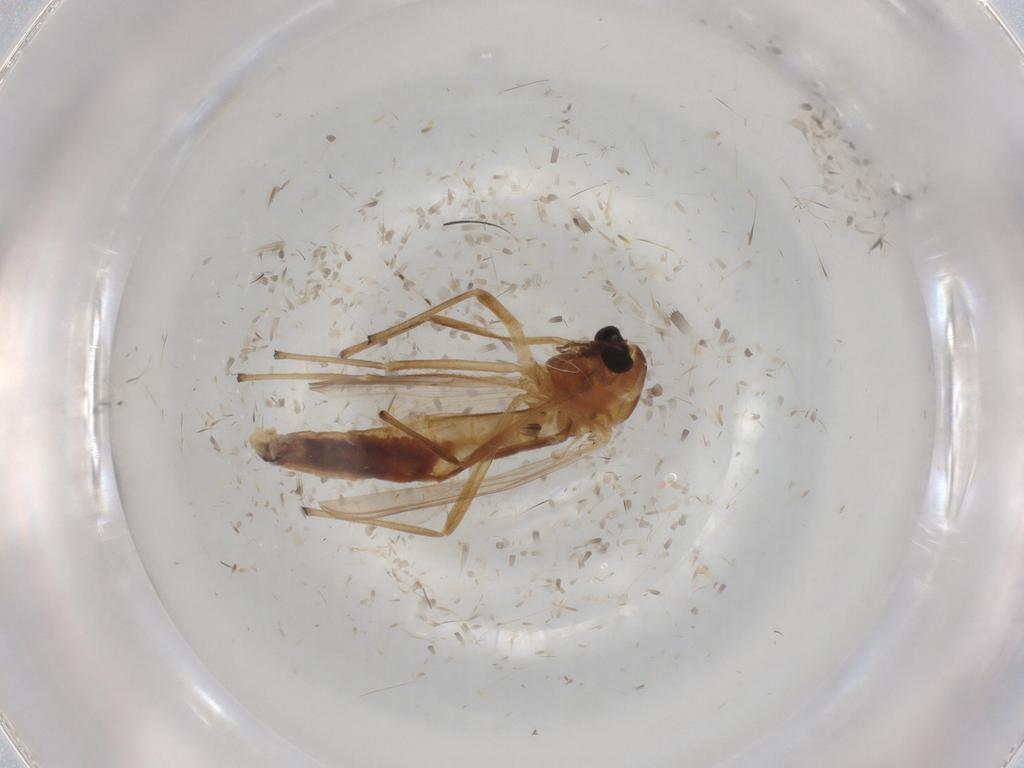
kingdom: Animalia
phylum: Arthropoda
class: Insecta
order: Diptera
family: Chironomidae
